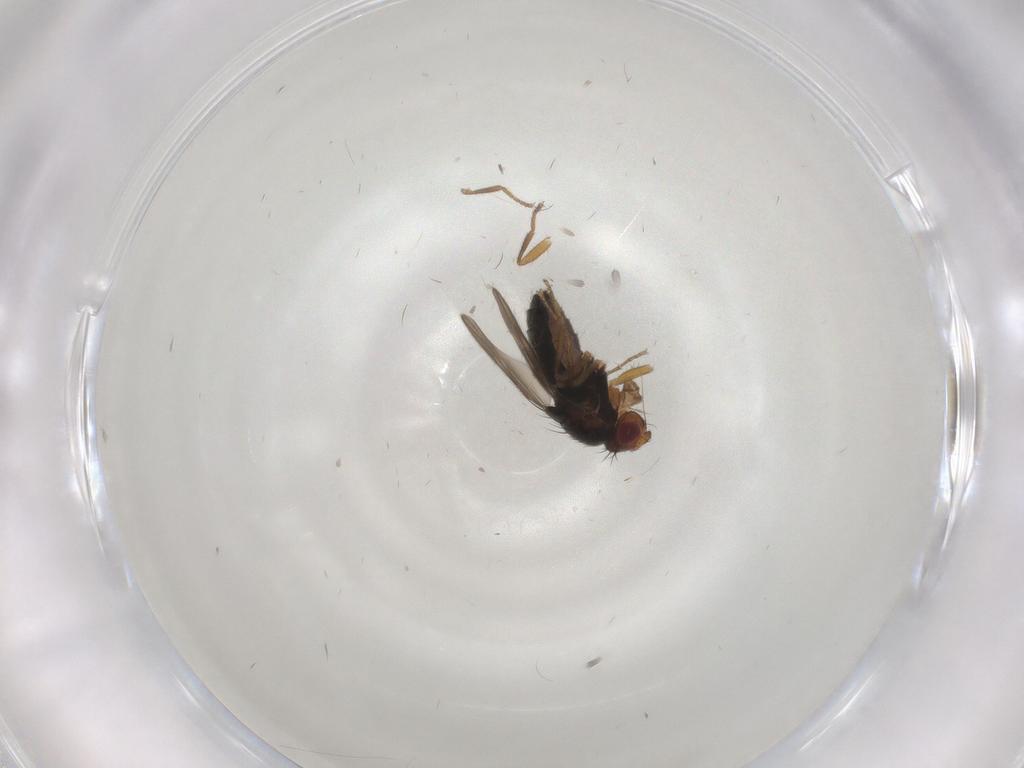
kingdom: Animalia
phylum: Arthropoda
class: Insecta
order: Diptera
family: Sphaeroceridae
